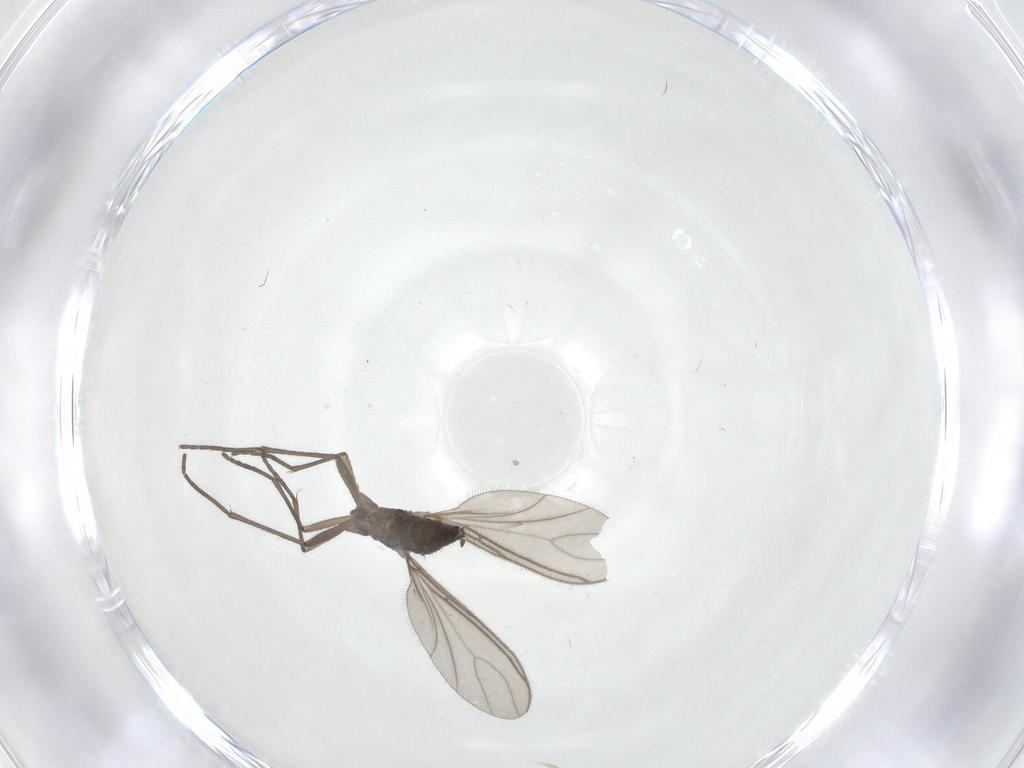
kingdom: Animalia
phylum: Arthropoda
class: Insecta
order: Diptera
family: Sciaridae
